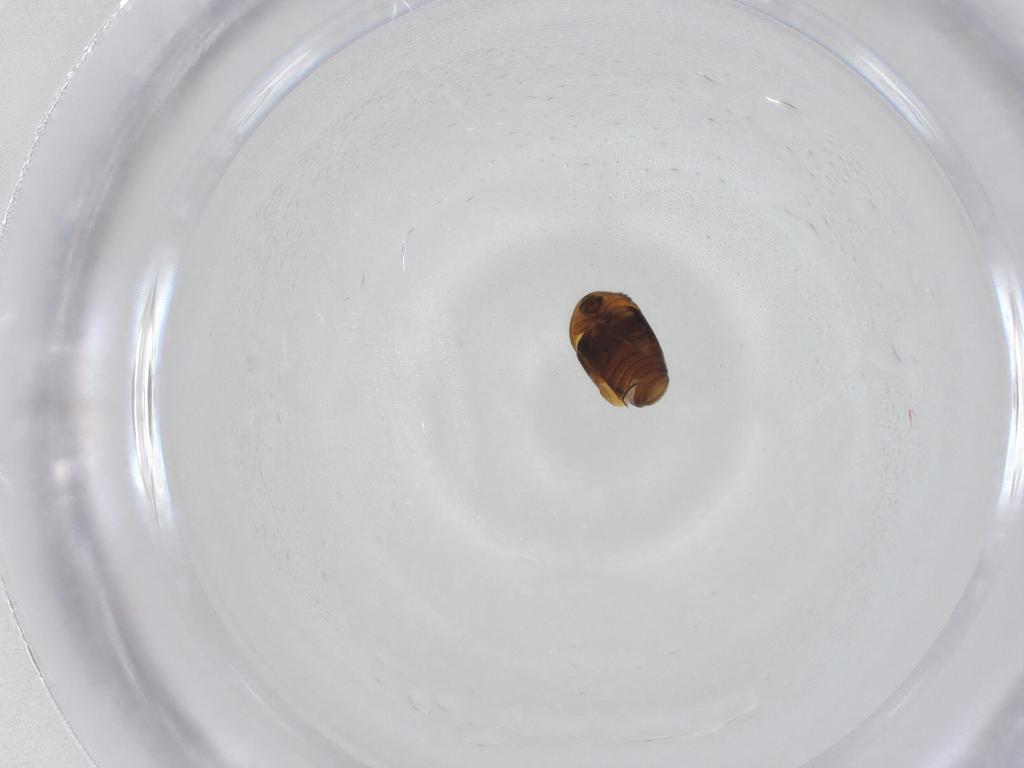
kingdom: Animalia
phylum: Arthropoda
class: Insecta
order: Coleoptera
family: Corylophidae
